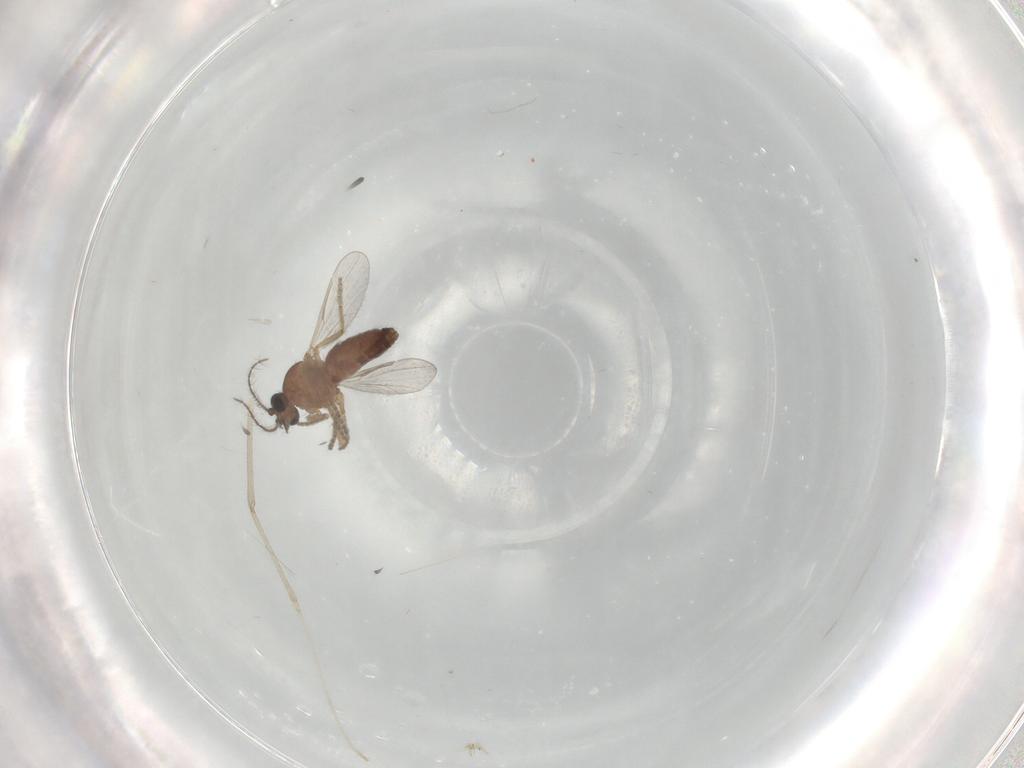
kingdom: Animalia
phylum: Arthropoda
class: Insecta
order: Diptera
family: Ceratopogonidae
